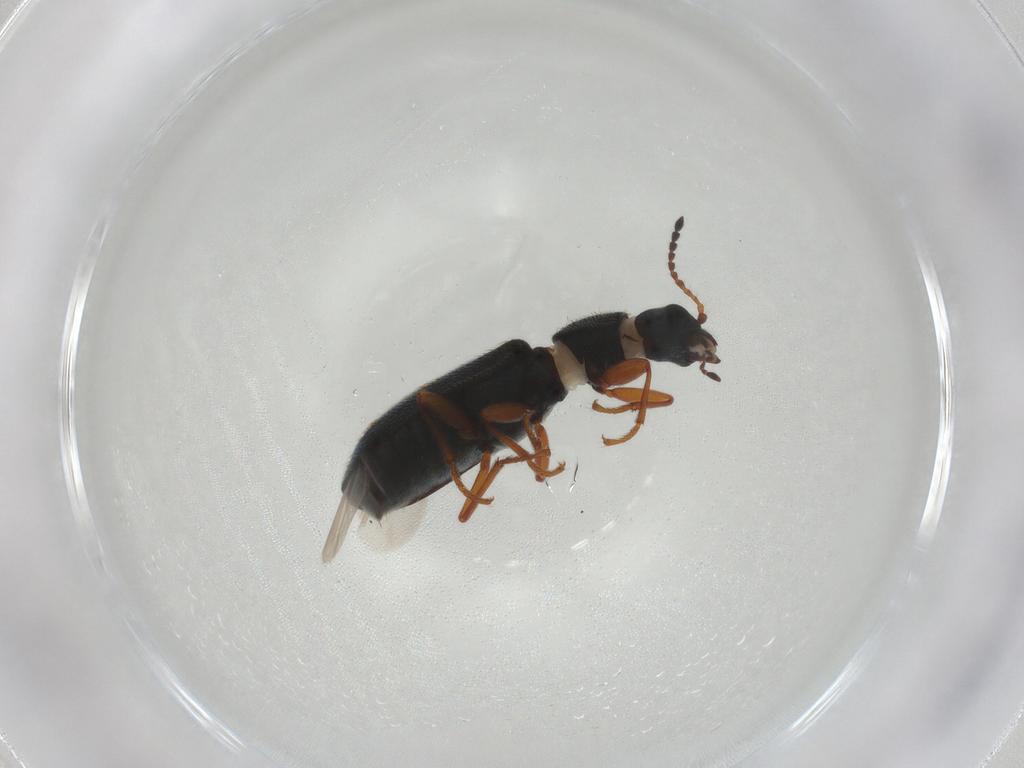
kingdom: Animalia
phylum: Arthropoda
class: Insecta
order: Coleoptera
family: Melyridae
